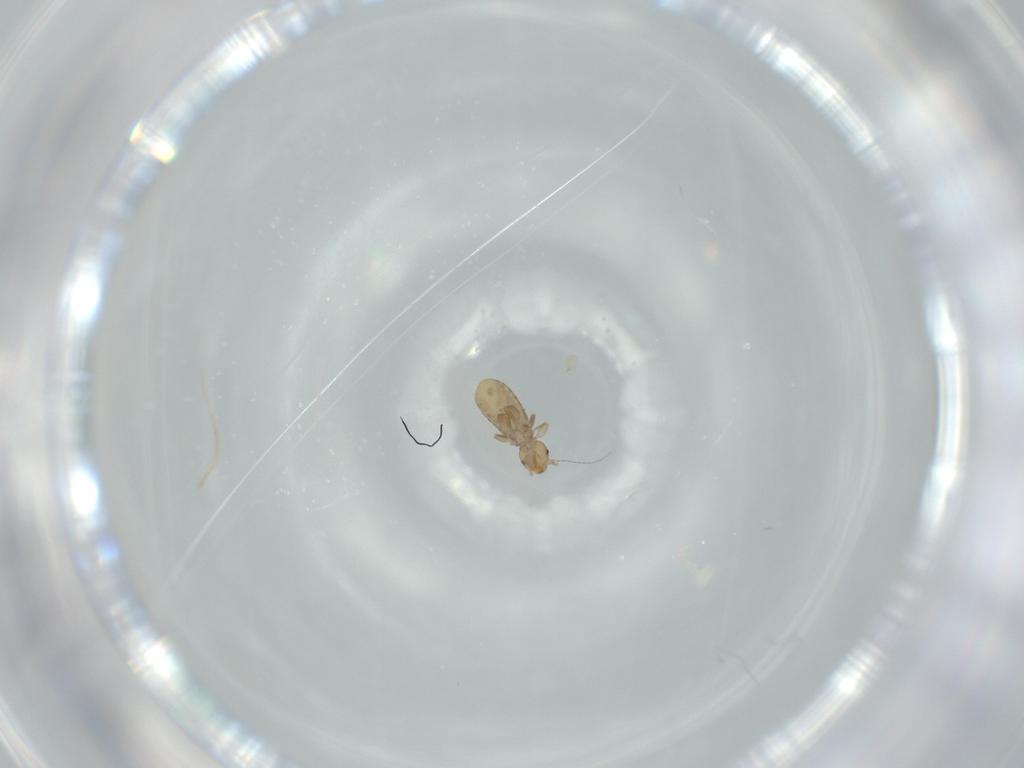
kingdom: Animalia
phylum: Arthropoda
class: Insecta
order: Psocodea
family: Liposcelididae
